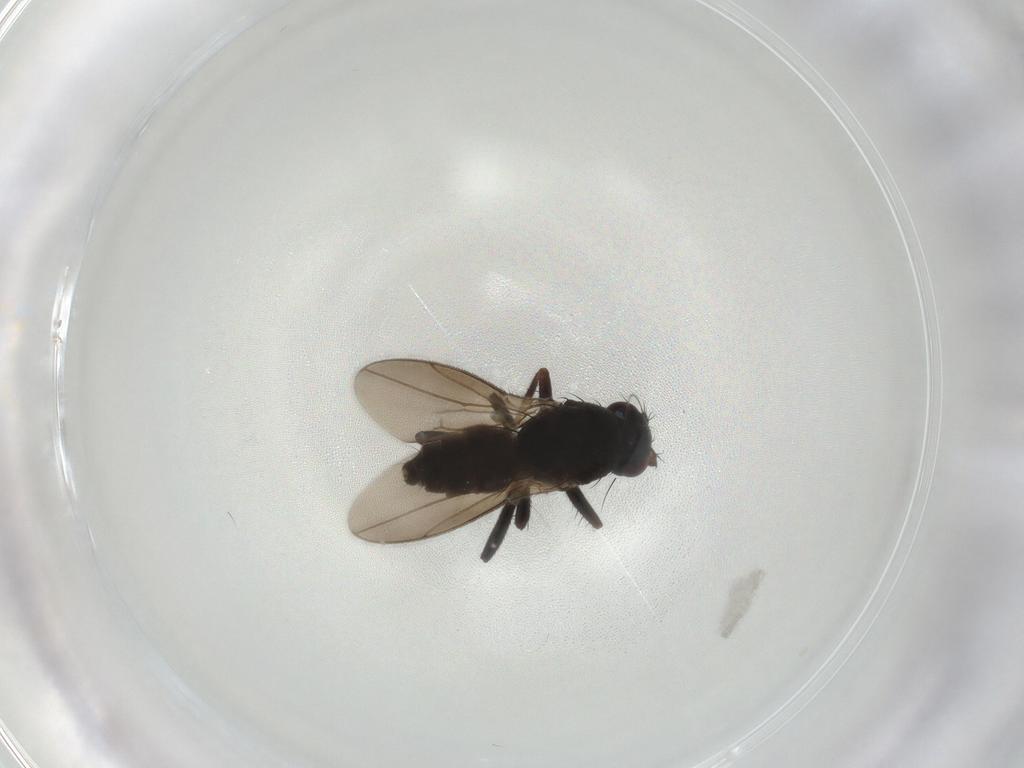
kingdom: Animalia
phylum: Arthropoda
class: Insecta
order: Diptera
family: Sphaeroceridae
